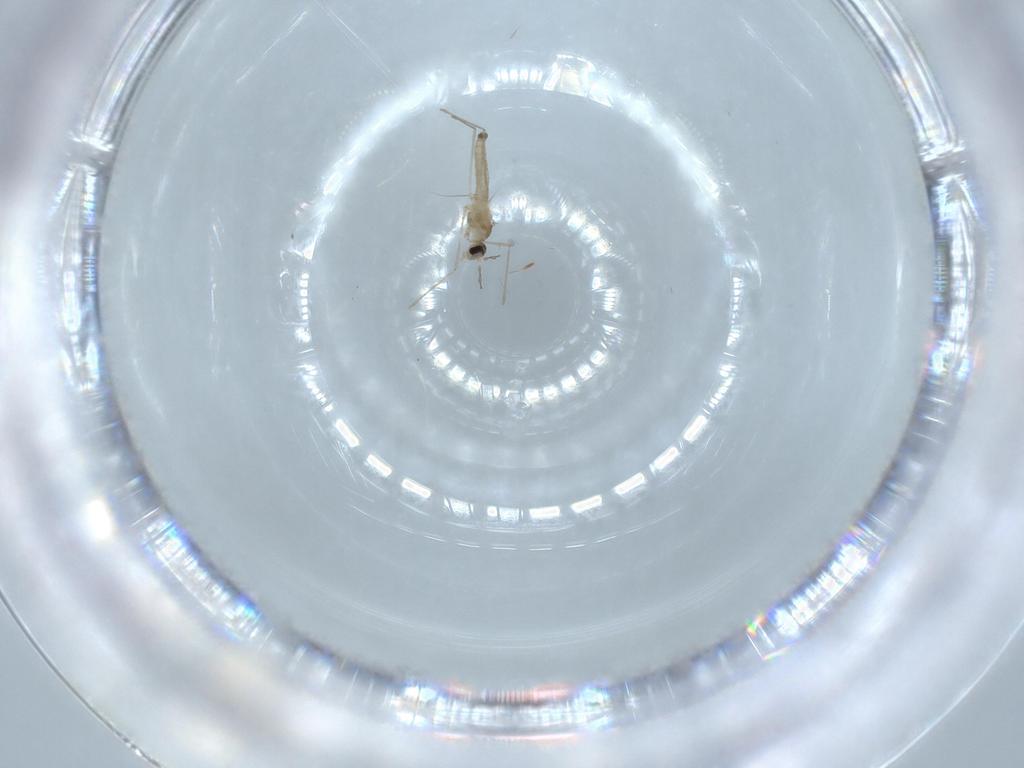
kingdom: Animalia
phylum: Arthropoda
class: Insecta
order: Diptera
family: Cecidomyiidae
